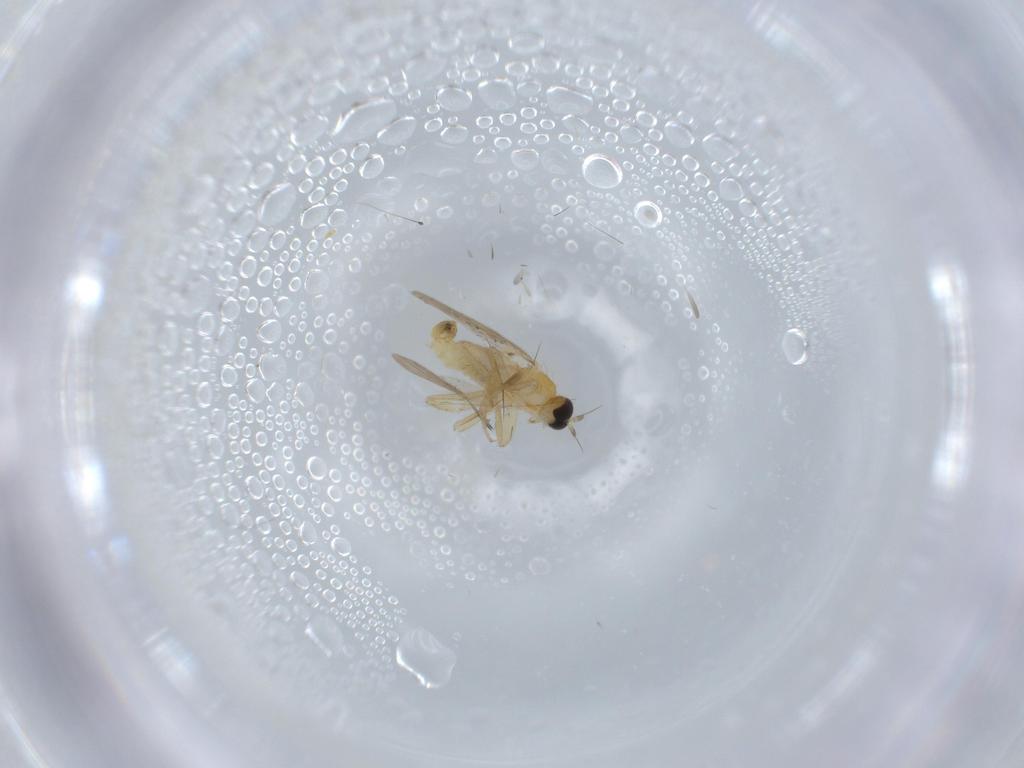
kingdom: Animalia
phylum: Arthropoda
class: Insecta
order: Diptera
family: Hybotidae
